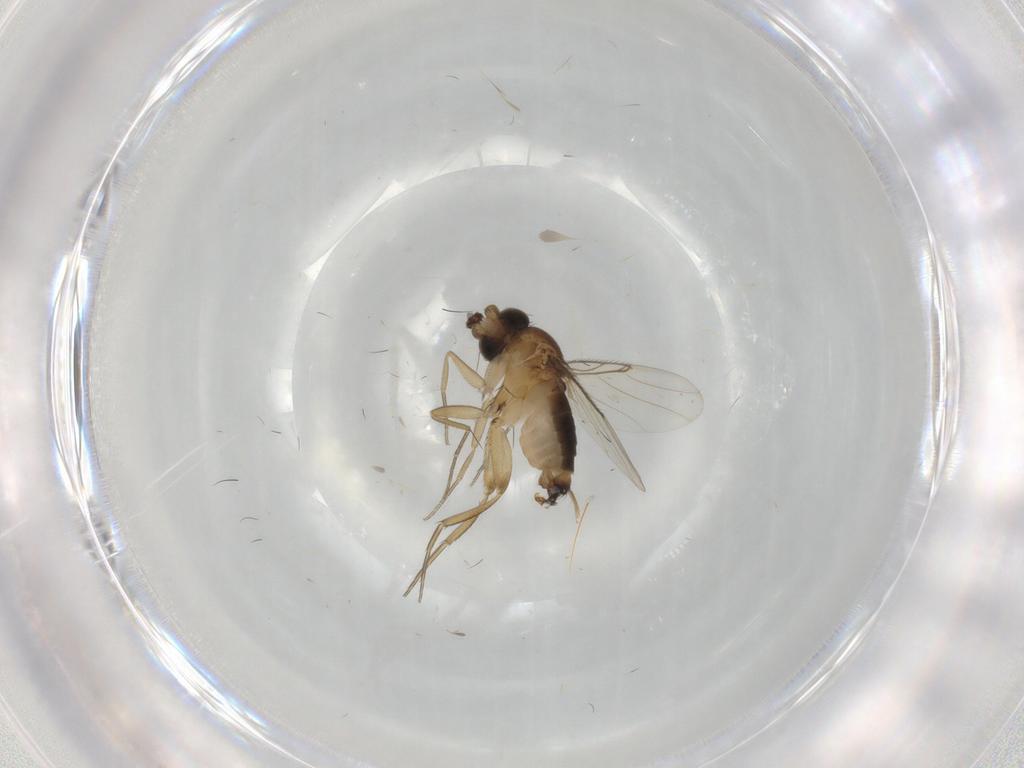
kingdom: Animalia
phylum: Arthropoda
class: Insecta
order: Diptera
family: Phoridae
